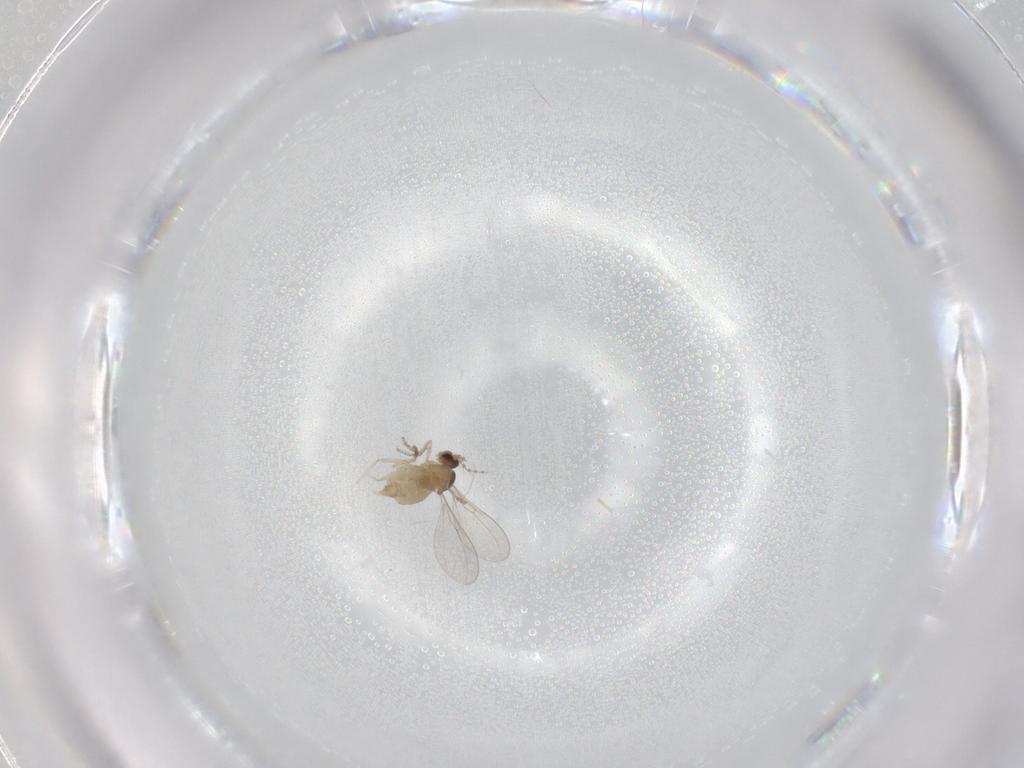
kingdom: Animalia
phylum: Arthropoda
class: Insecta
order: Diptera
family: Cecidomyiidae
